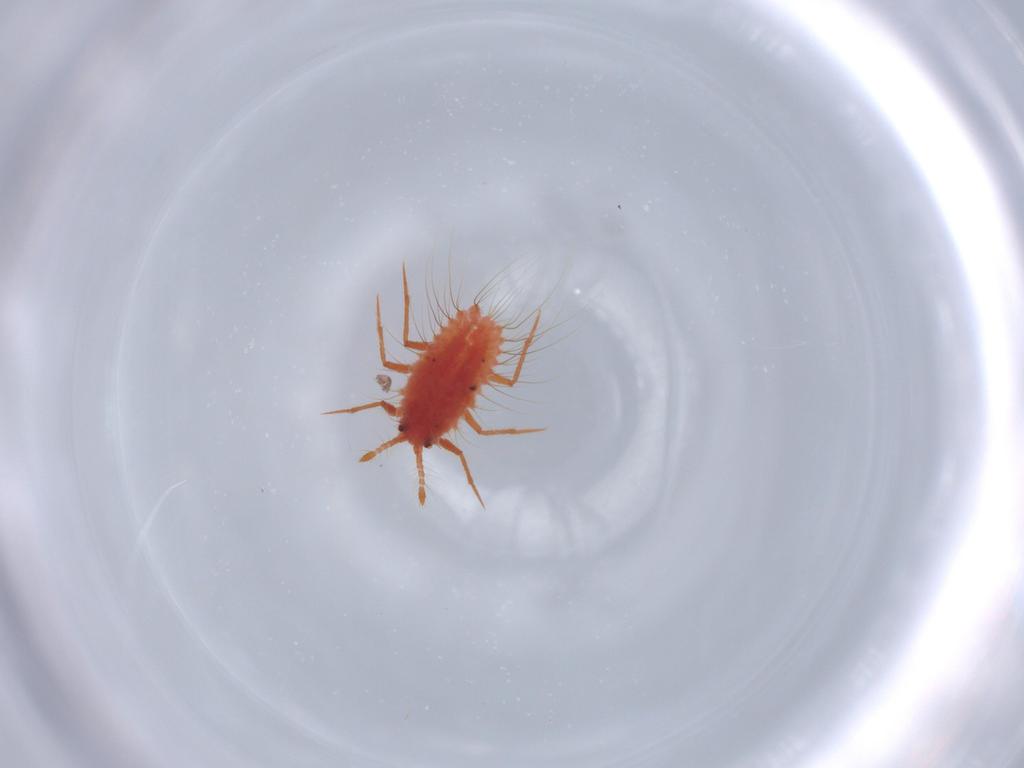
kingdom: Animalia
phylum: Arthropoda
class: Insecta
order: Hemiptera
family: Monophlebidae
